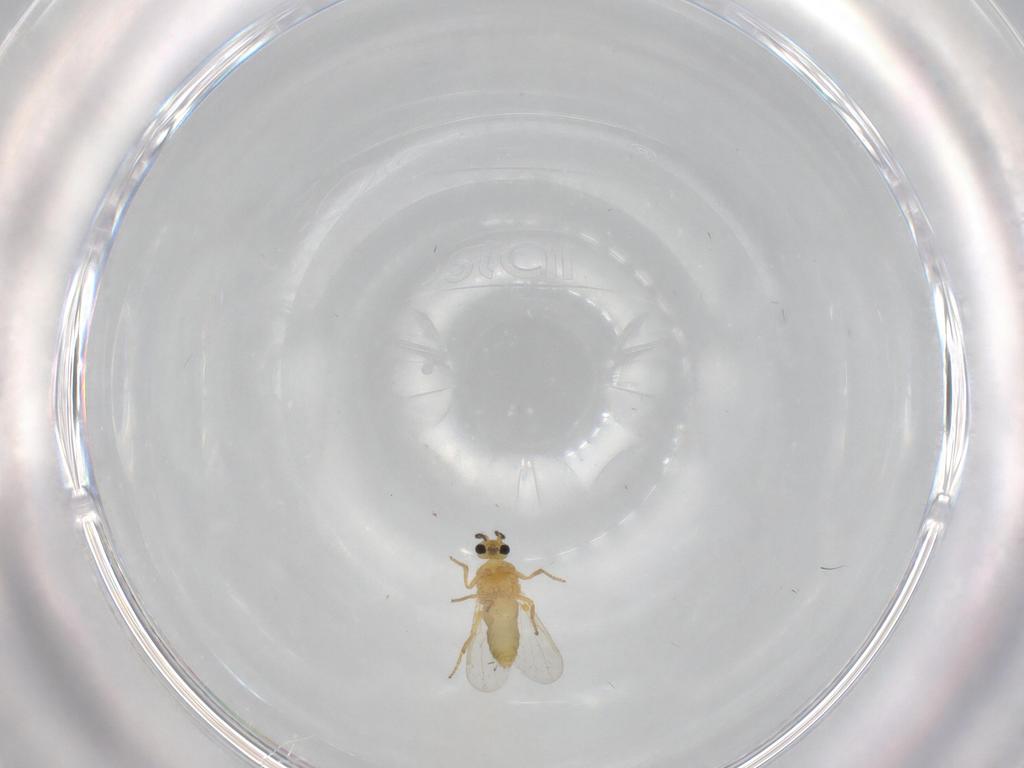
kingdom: Animalia
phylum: Arthropoda
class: Insecta
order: Diptera
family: Ceratopogonidae
